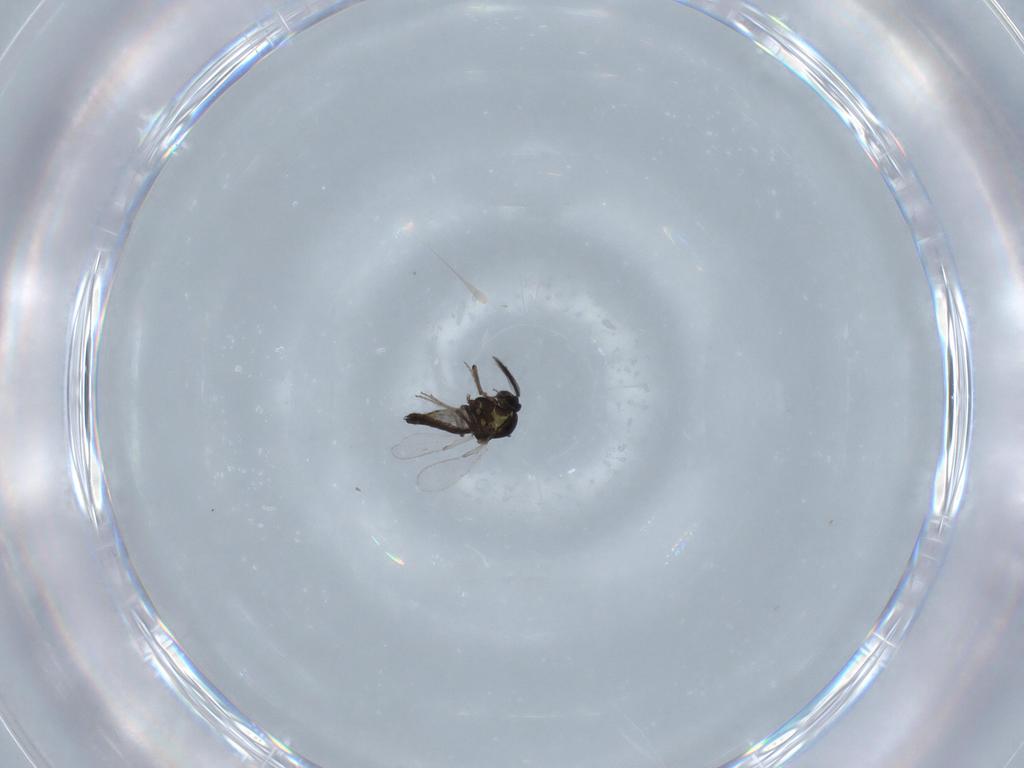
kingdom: Animalia
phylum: Arthropoda
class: Insecta
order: Diptera
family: Ceratopogonidae
